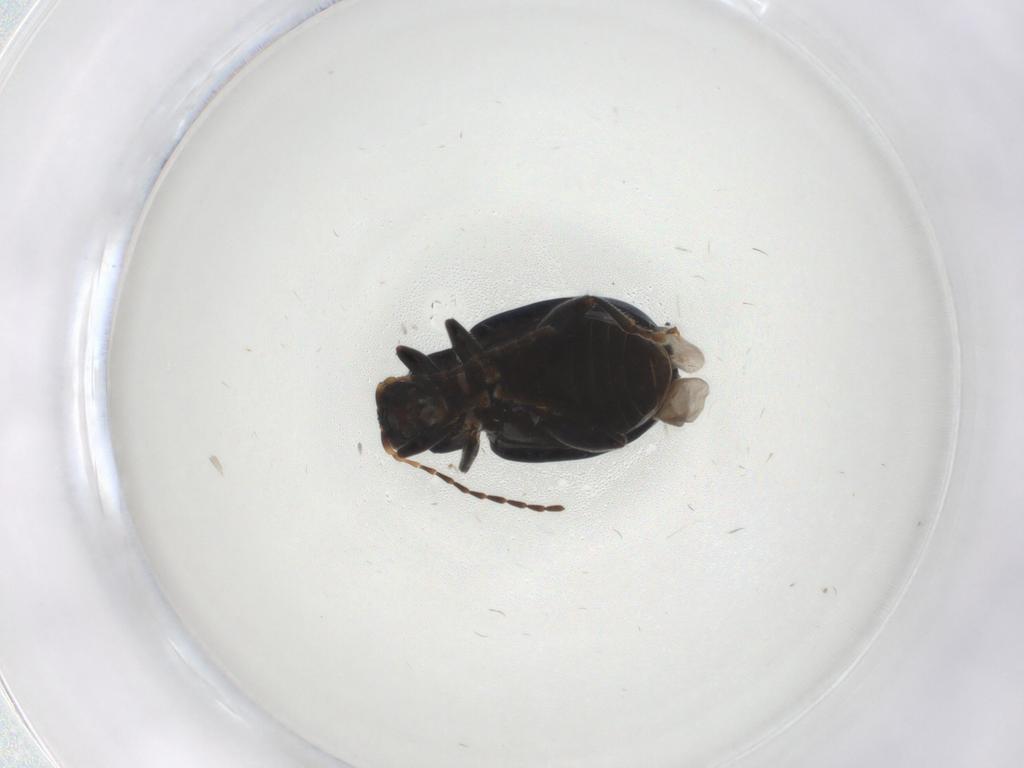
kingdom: Animalia
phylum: Arthropoda
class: Insecta
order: Coleoptera
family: Chrysomelidae
